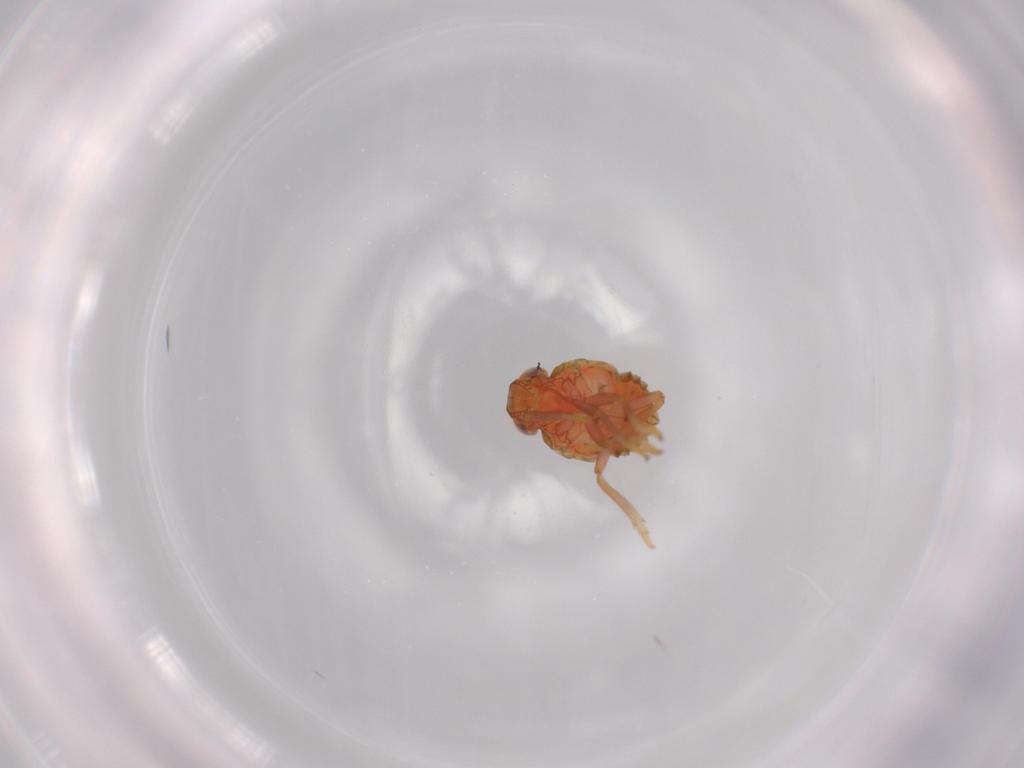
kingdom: Animalia
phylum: Arthropoda
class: Insecta
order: Hemiptera
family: Issidae
